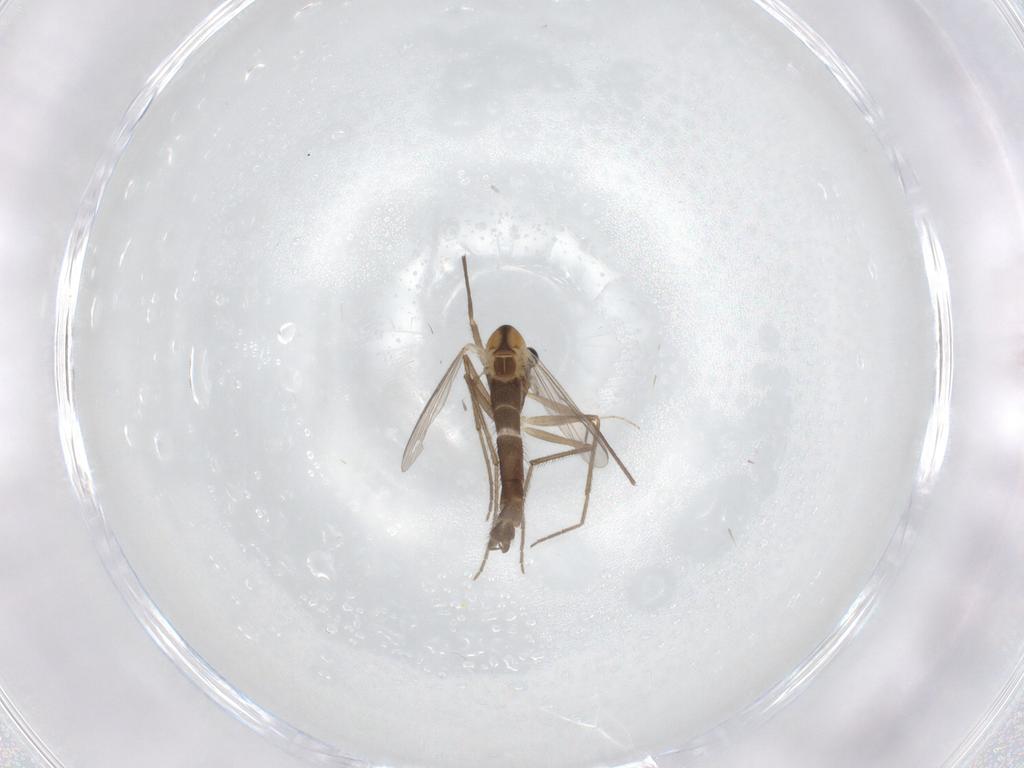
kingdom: Animalia
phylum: Arthropoda
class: Insecta
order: Diptera
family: Chironomidae
